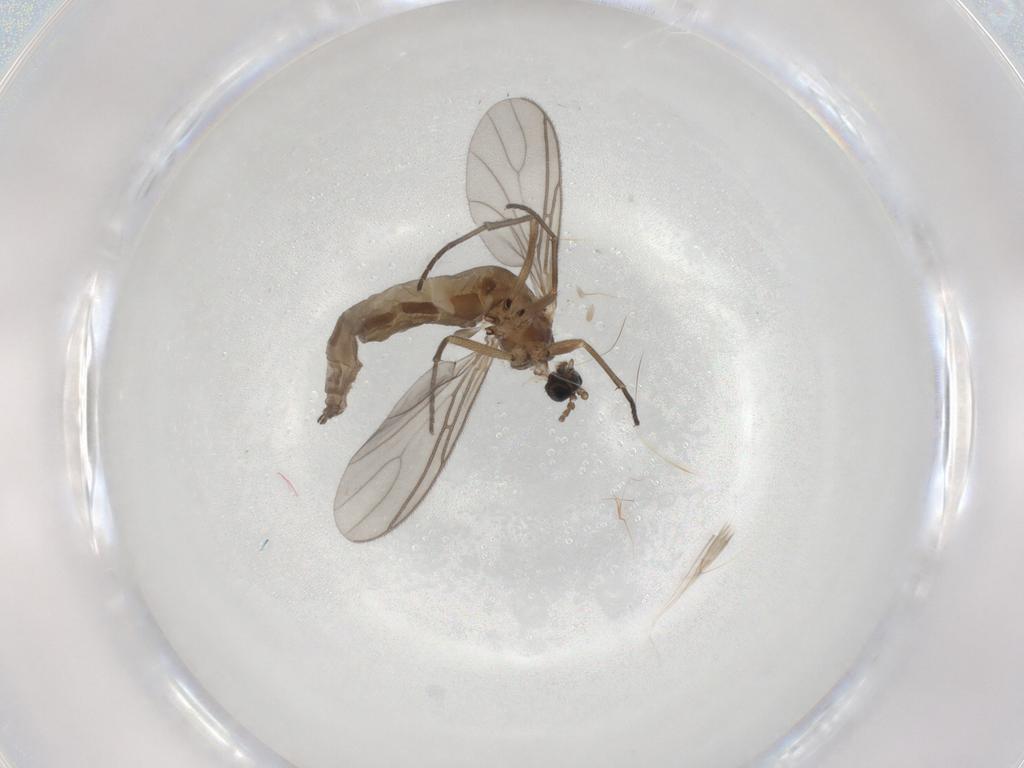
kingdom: Animalia
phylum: Arthropoda
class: Insecta
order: Diptera
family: Sciaridae
